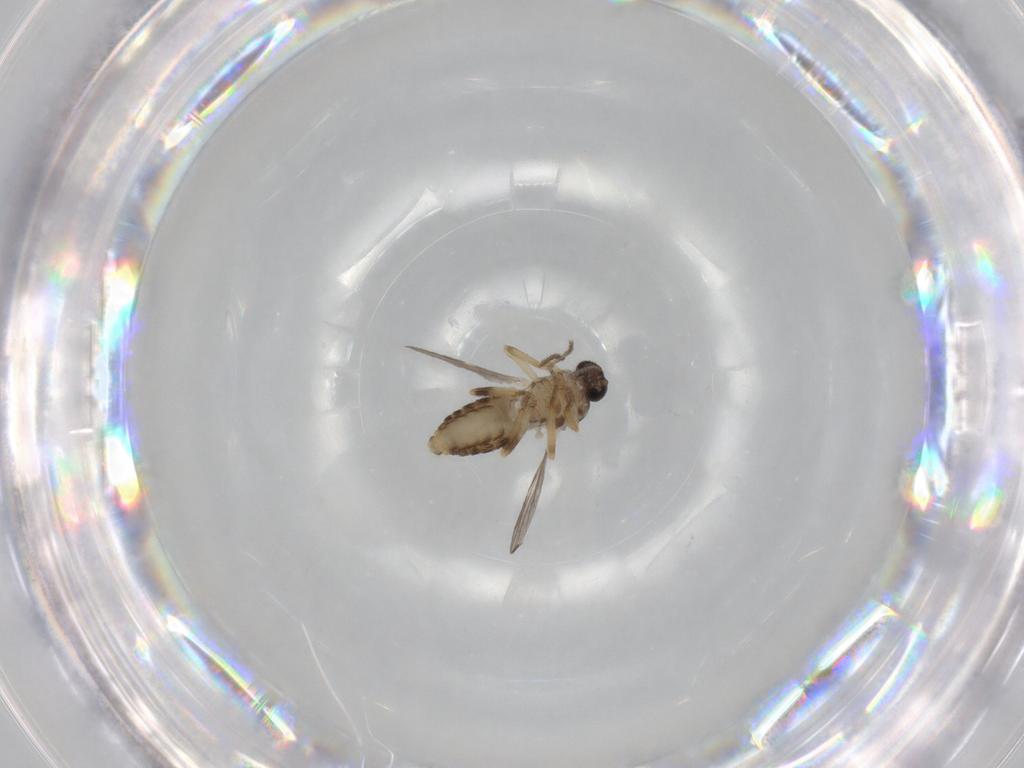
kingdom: Animalia
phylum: Arthropoda
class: Insecta
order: Diptera
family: Ceratopogonidae
